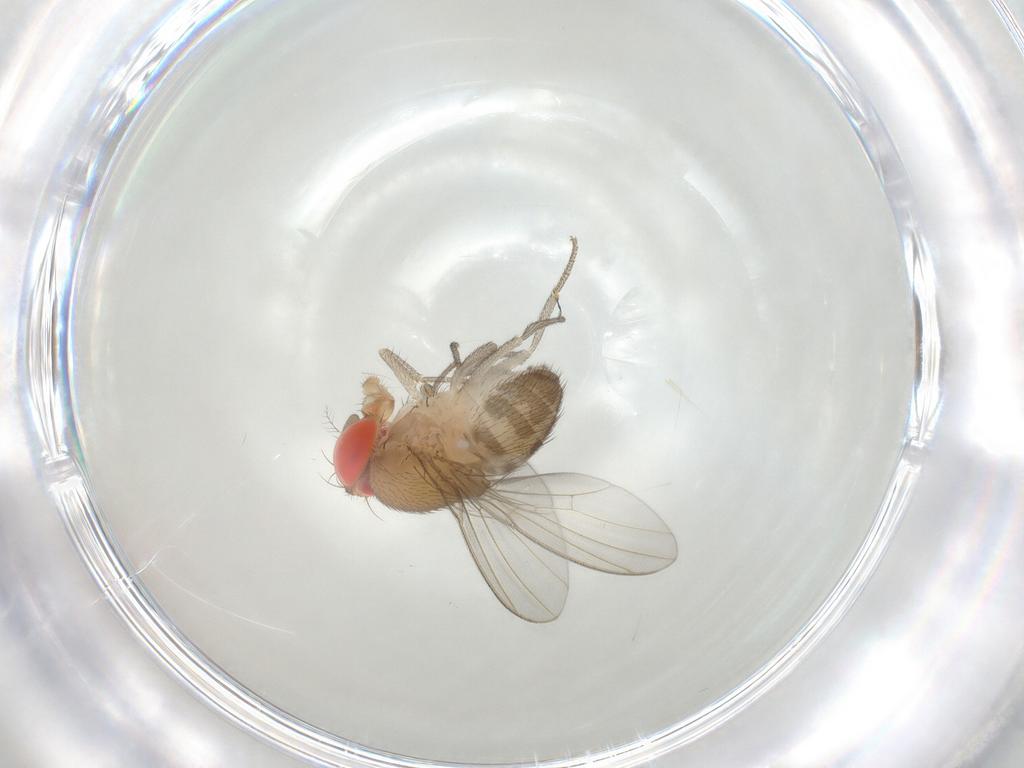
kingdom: Animalia
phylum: Arthropoda
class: Insecta
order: Diptera
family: Drosophilidae
